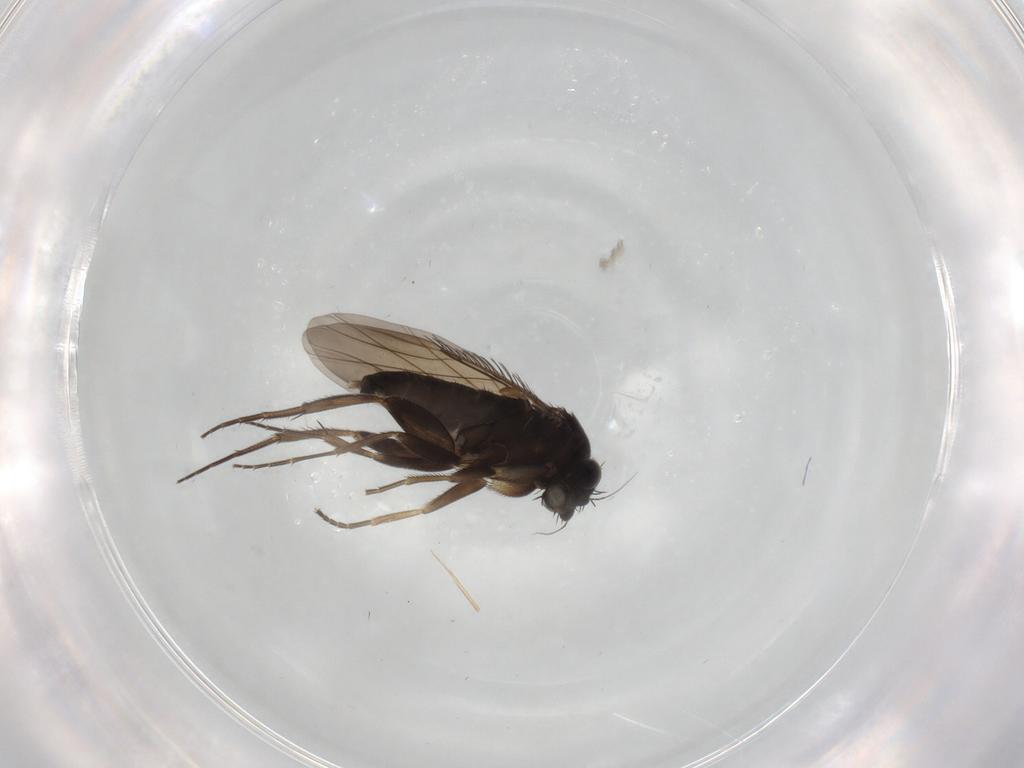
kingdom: Animalia
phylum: Arthropoda
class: Insecta
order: Diptera
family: Phoridae
